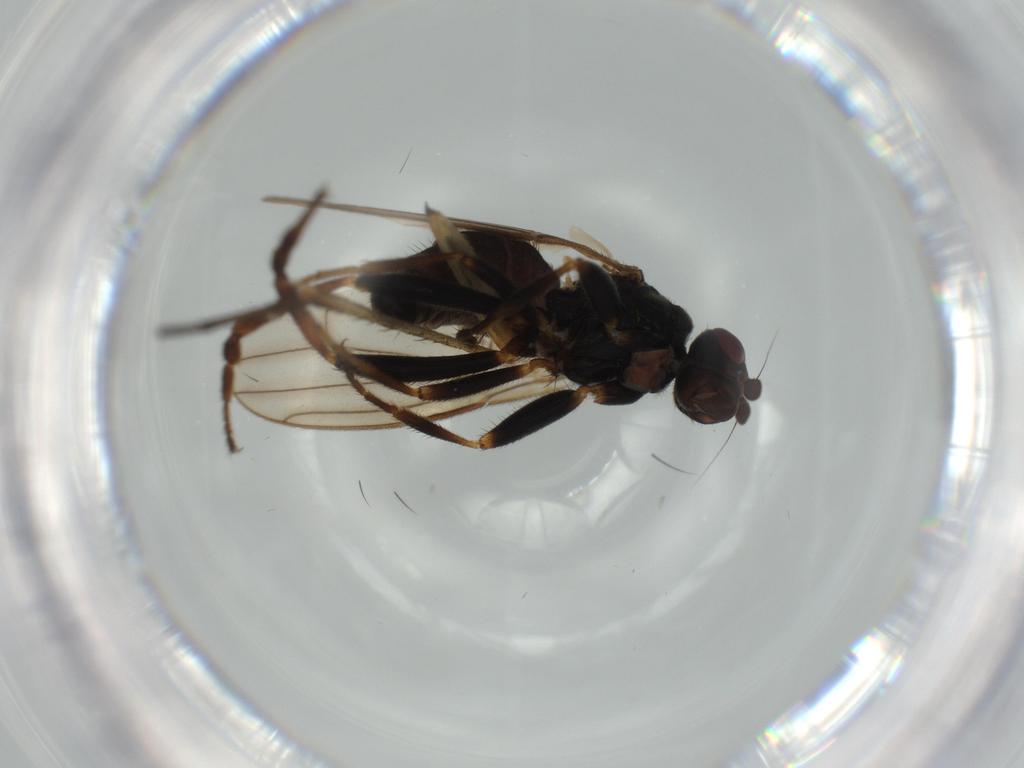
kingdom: Animalia
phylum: Arthropoda
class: Insecta
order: Diptera
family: Sphaeroceridae
